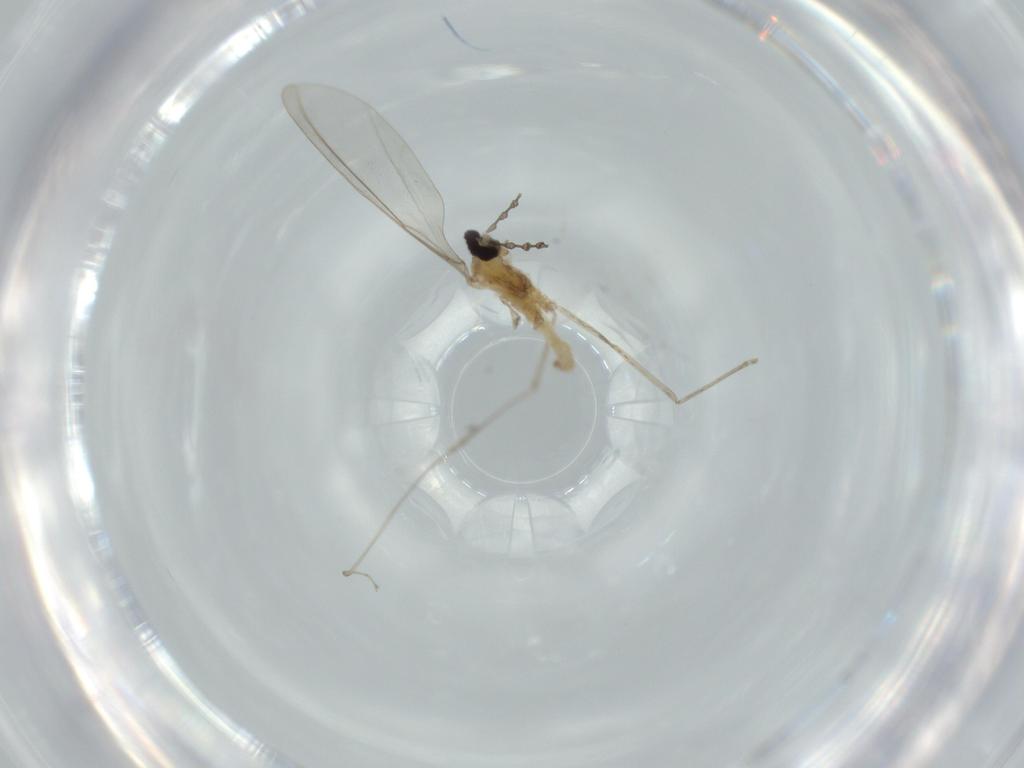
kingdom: Animalia
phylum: Arthropoda
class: Insecta
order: Diptera
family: Cecidomyiidae
